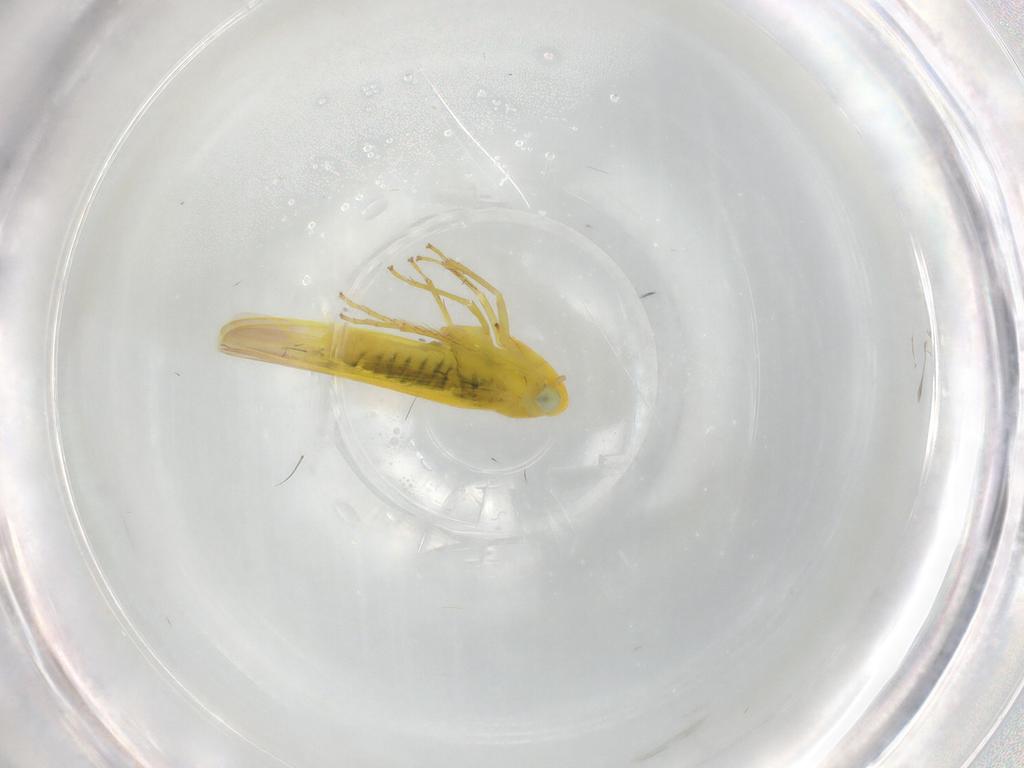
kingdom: Animalia
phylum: Arthropoda
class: Insecta
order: Hemiptera
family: Cicadellidae
